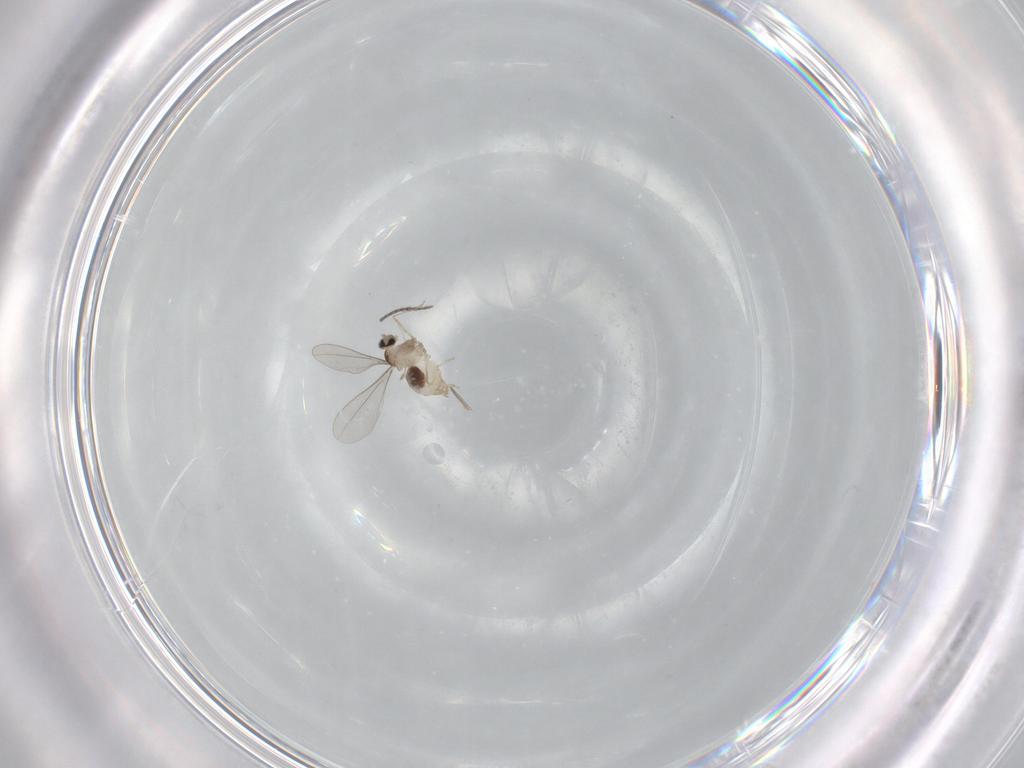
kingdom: Animalia
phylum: Arthropoda
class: Insecta
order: Diptera
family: Cecidomyiidae
